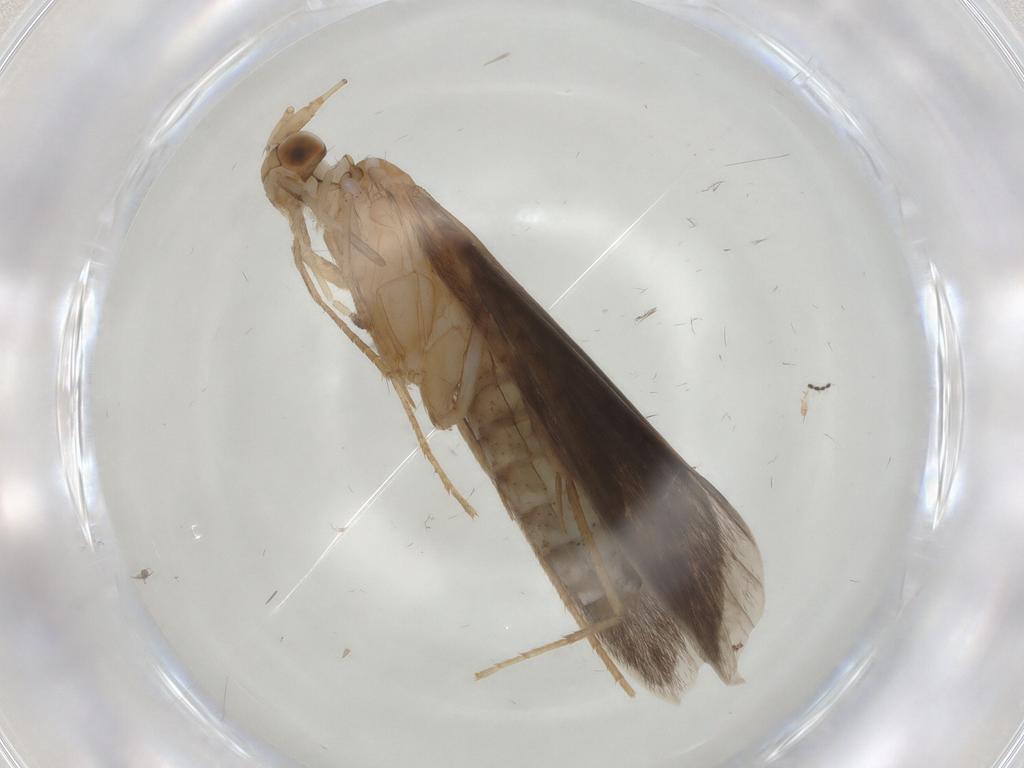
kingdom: Animalia
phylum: Arthropoda
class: Insecta
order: Trichoptera
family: Leptoceridae
